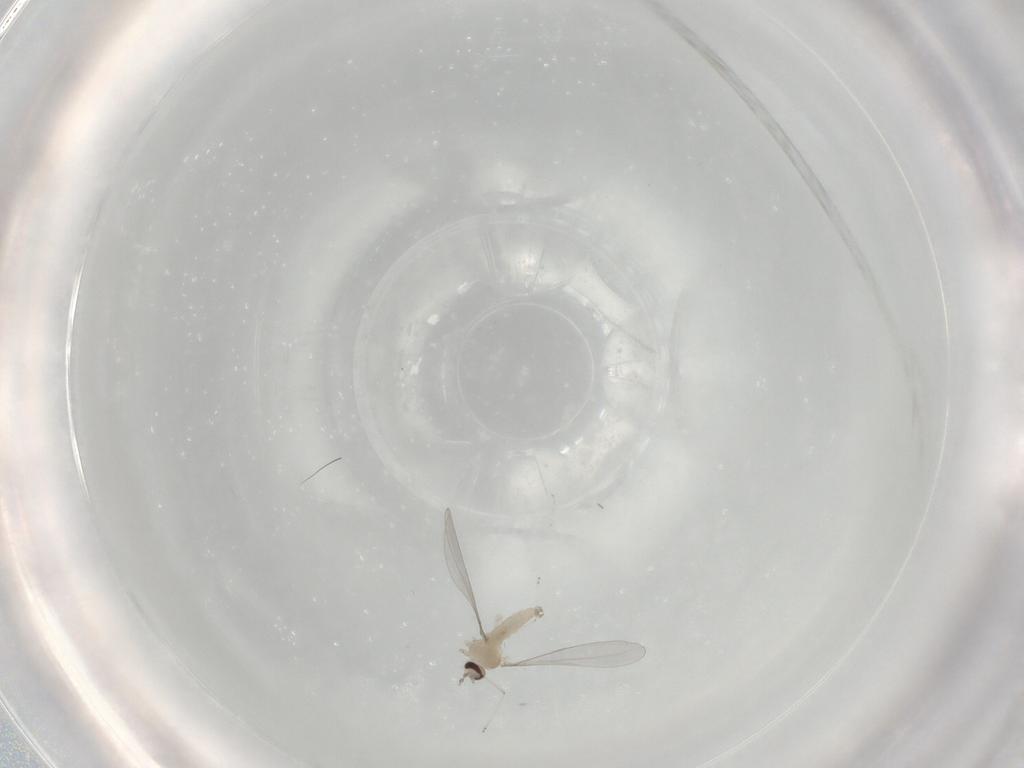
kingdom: Animalia
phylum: Arthropoda
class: Insecta
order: Diptera
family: Cecidomyiidae
